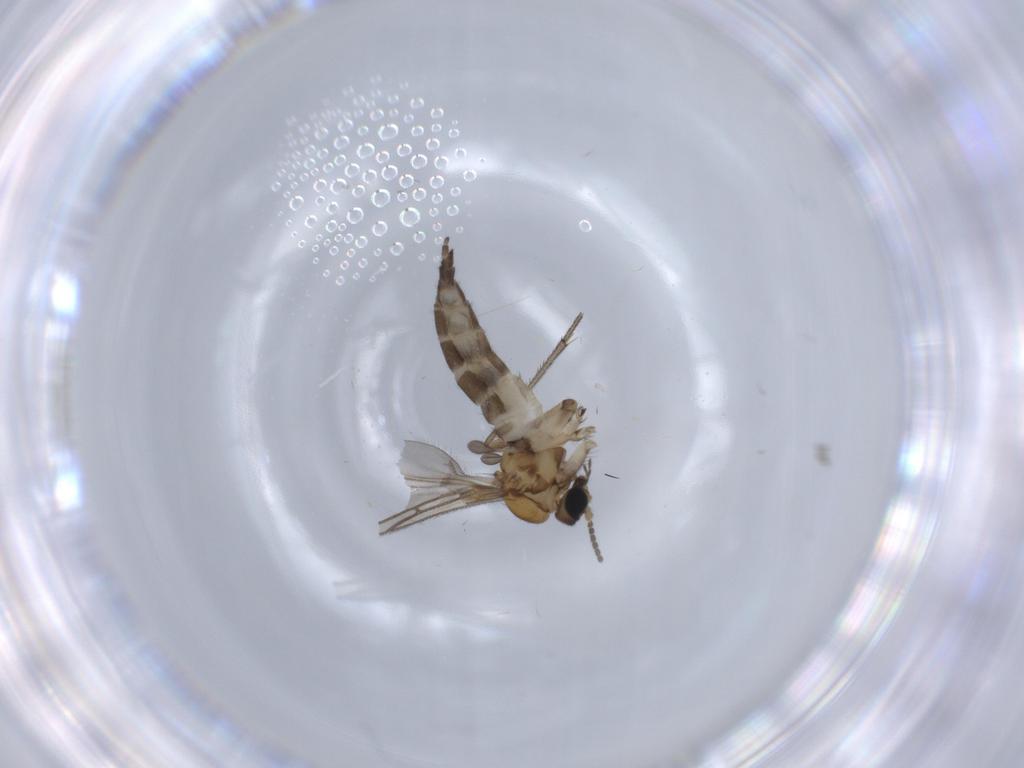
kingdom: Animalia
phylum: Arthropoda
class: Insecta
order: Diptera
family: Sciaridae
